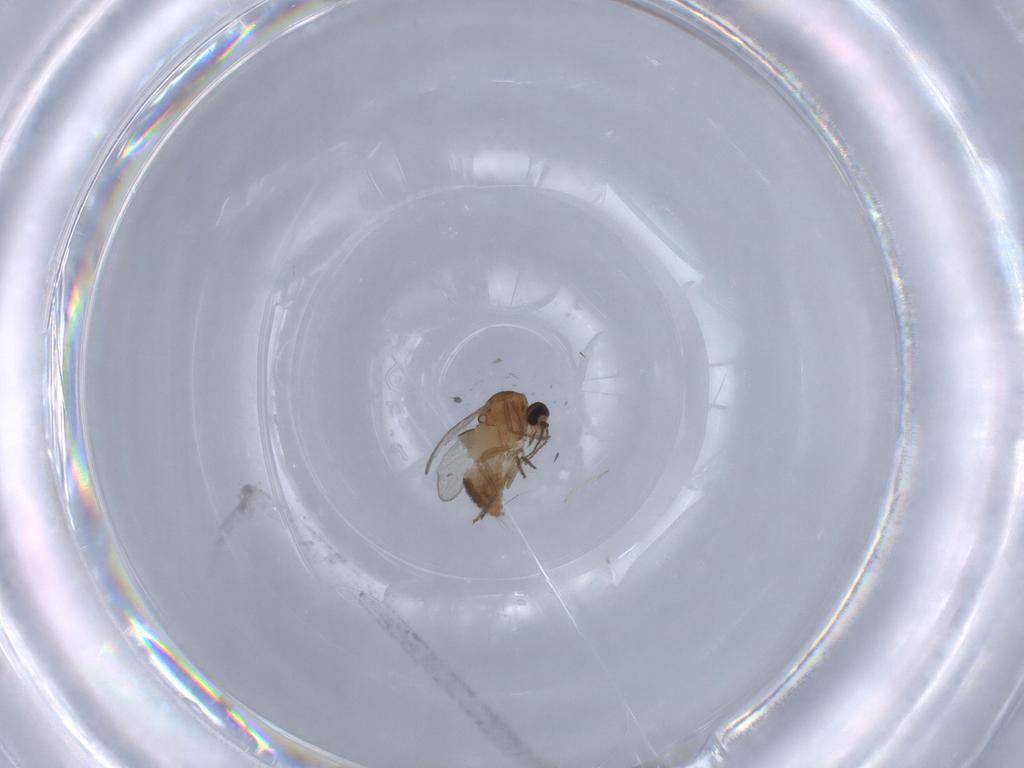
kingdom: Animalia
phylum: Arthropoda
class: Insecta
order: Diptera
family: Ceratopogonidae
